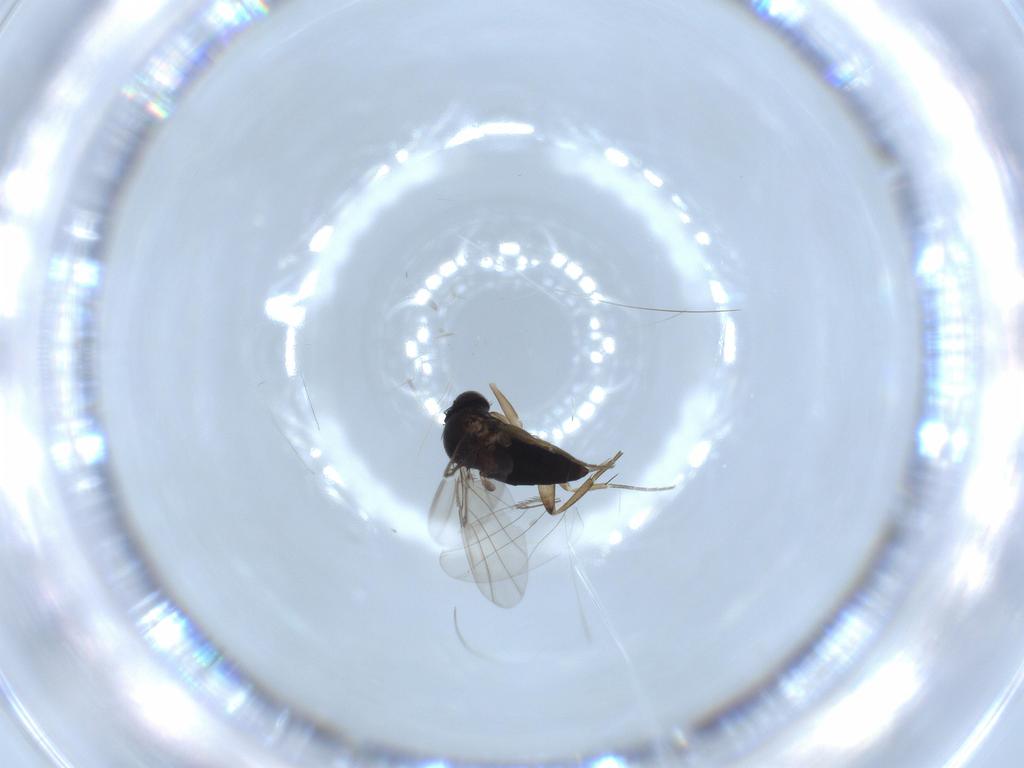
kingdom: Animalia
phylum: Arthropoda
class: Insecta
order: Diptera
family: Phoridae
